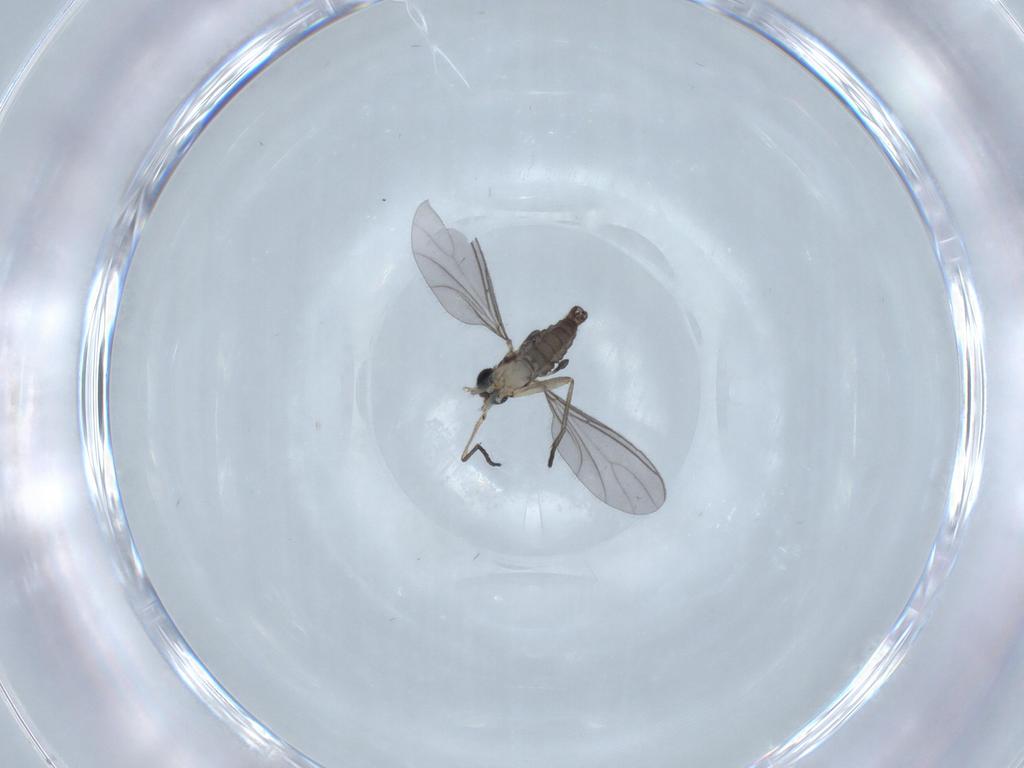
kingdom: Animalia
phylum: Arthropoda
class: Insecta
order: Diptera
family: Sciaridae
